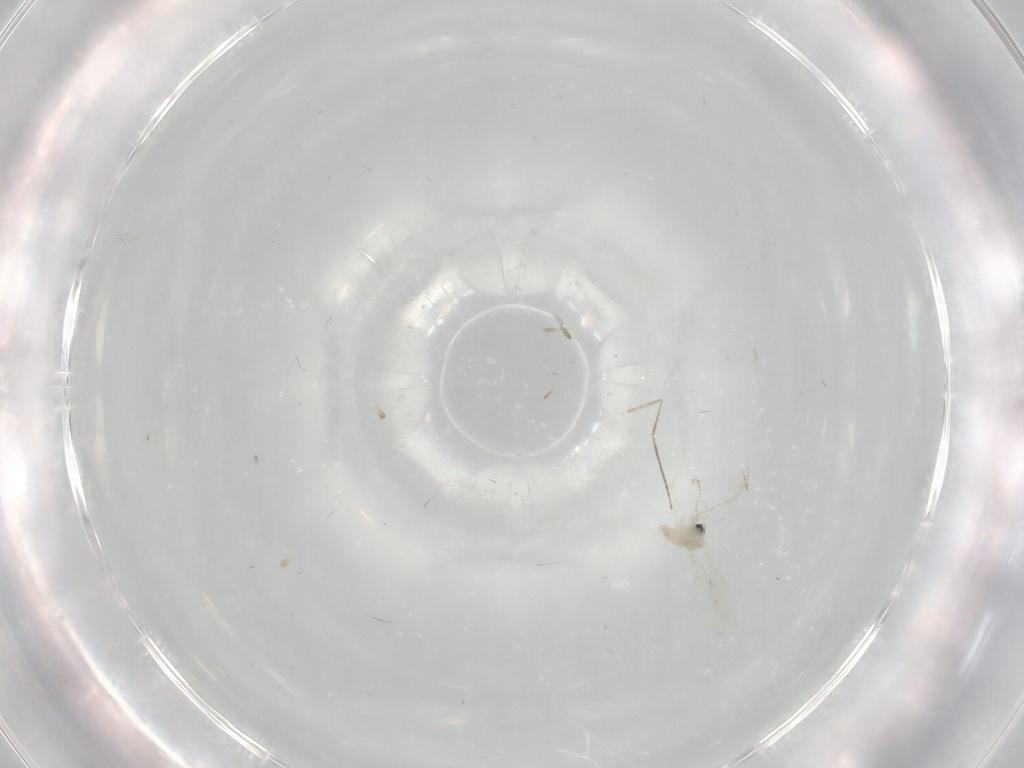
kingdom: Animalia
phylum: Arthropoda
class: Insecta
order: Diptera
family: Cecidomyiidae
